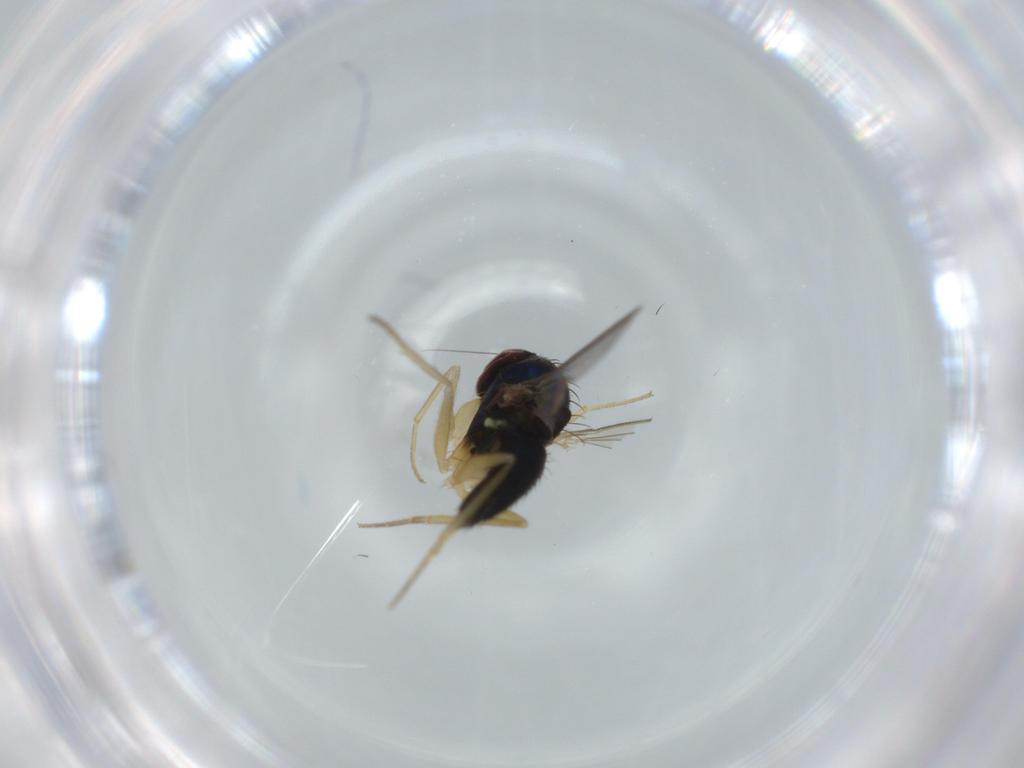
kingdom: Animalia
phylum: Arthropoda
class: Insecta
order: Diptera
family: Dolichopodidae
